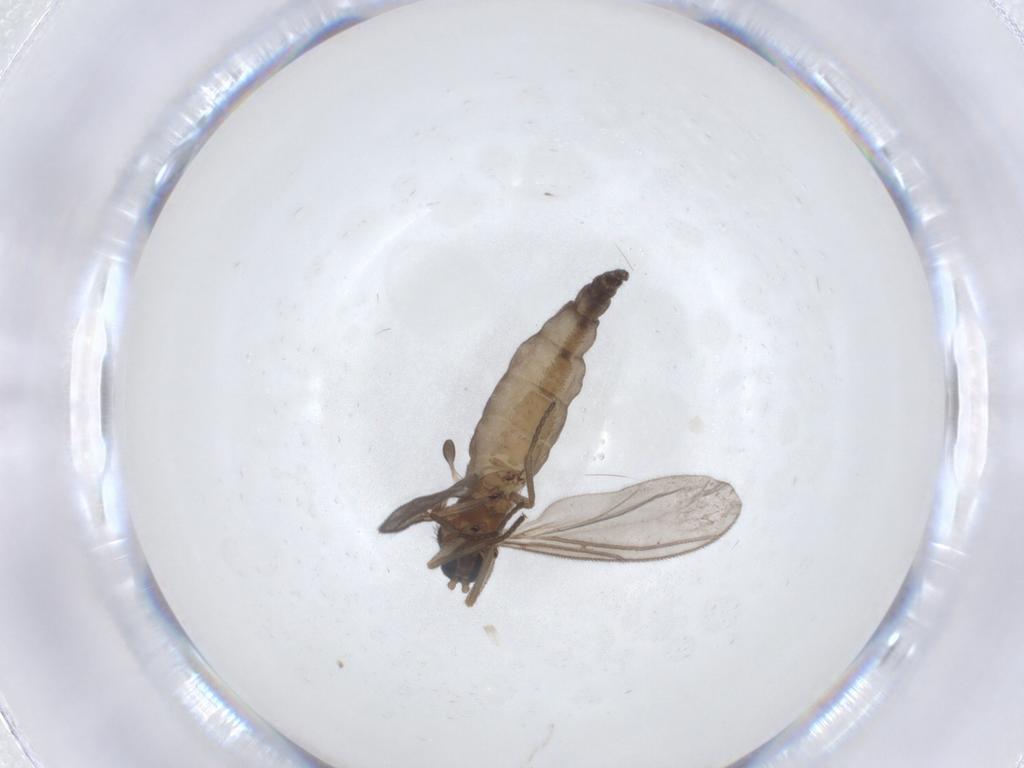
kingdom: Animalia
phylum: Arthropoda
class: Insecta
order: Diptera
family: Sciaridae
